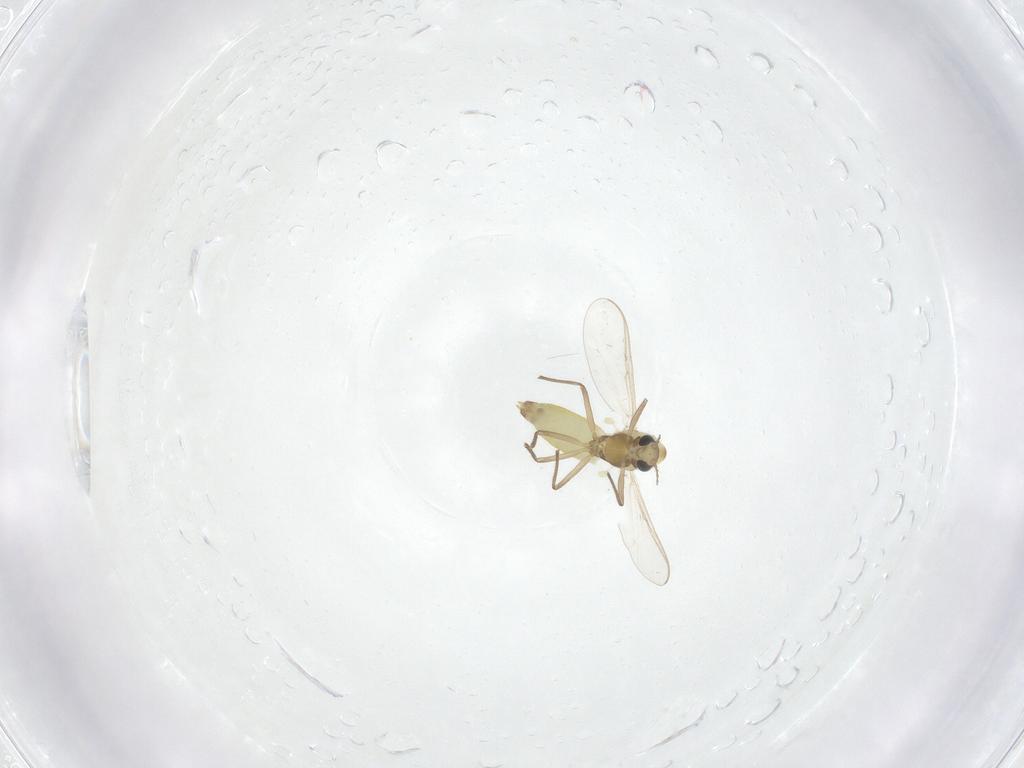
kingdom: Animalia
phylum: Arthropoda
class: Insecta
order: Diptera
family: Chironomidae
